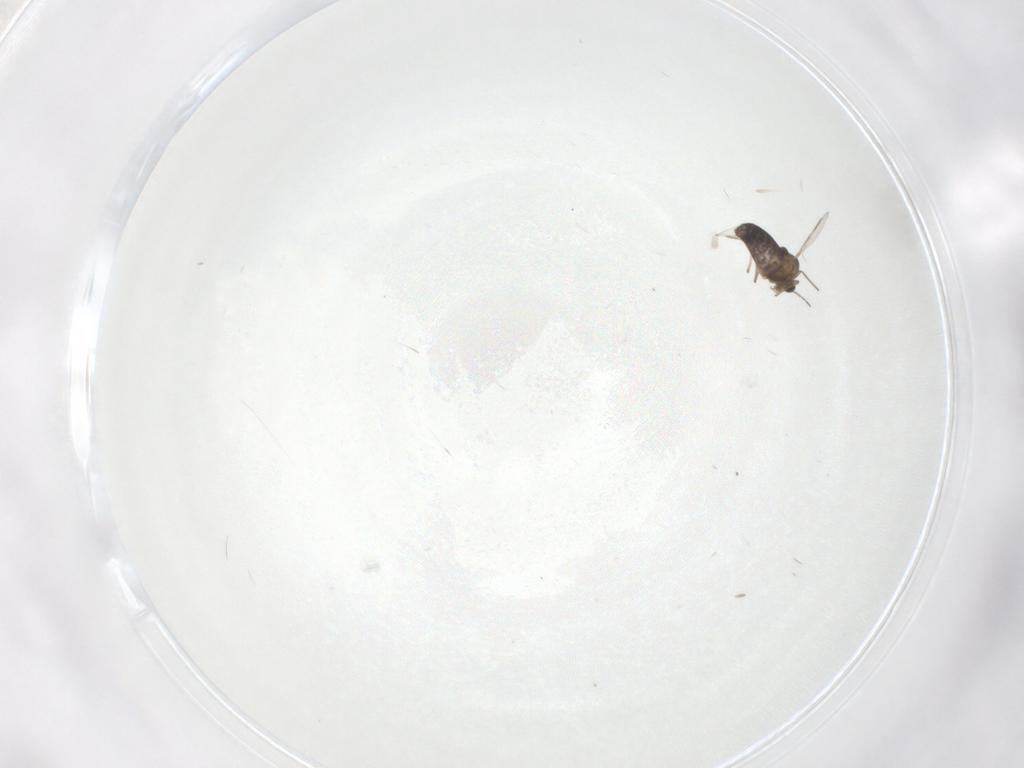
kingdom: Animalia
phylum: Arthropoda
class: Insecta
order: Diptera
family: Chironomidae
